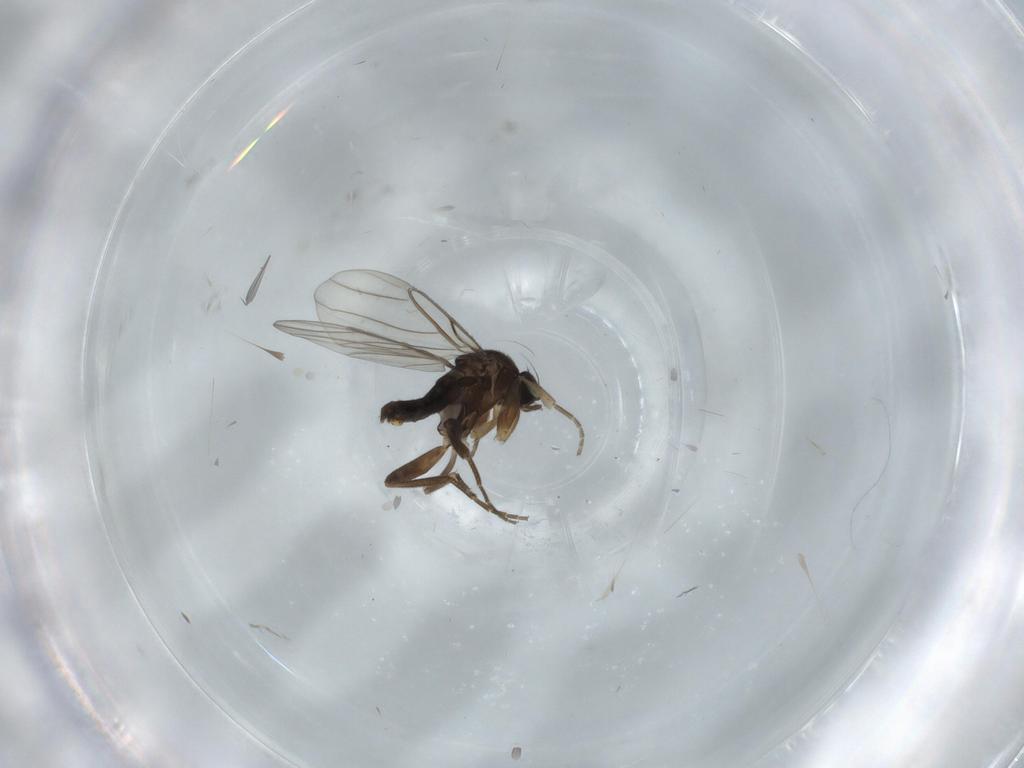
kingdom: Animalia
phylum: Arthropoda
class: Insecta
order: Diptera
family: Phoridae
